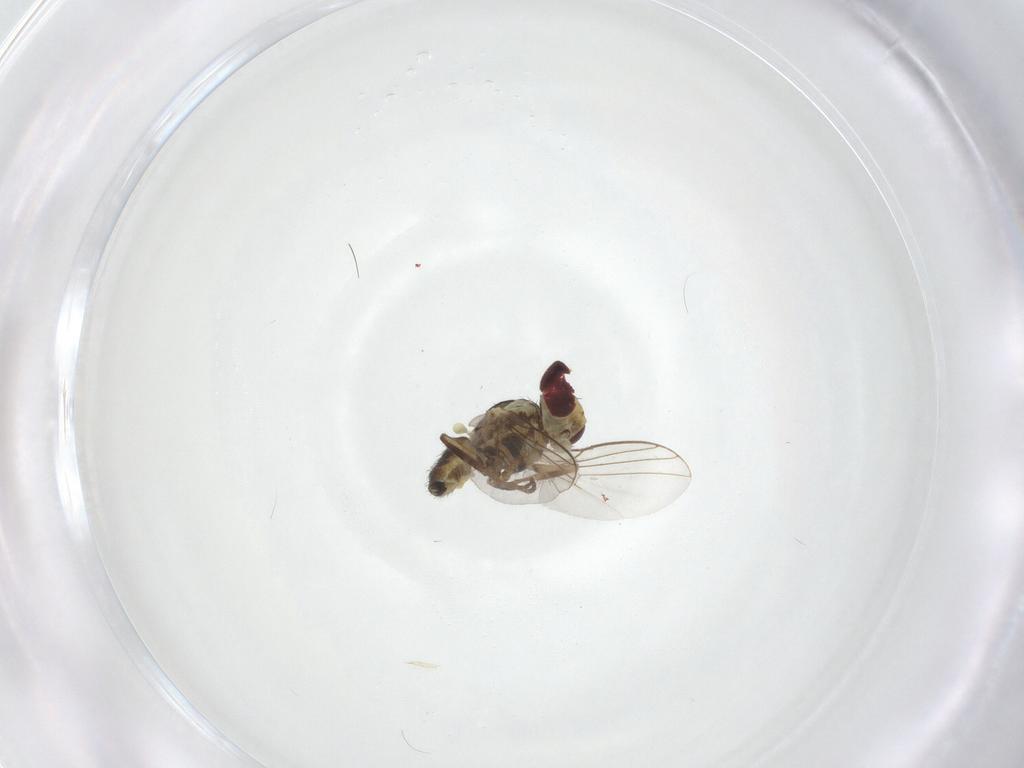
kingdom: Animalia
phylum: Arthropoda
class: Insecta
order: Diptera
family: Agromyzidae
